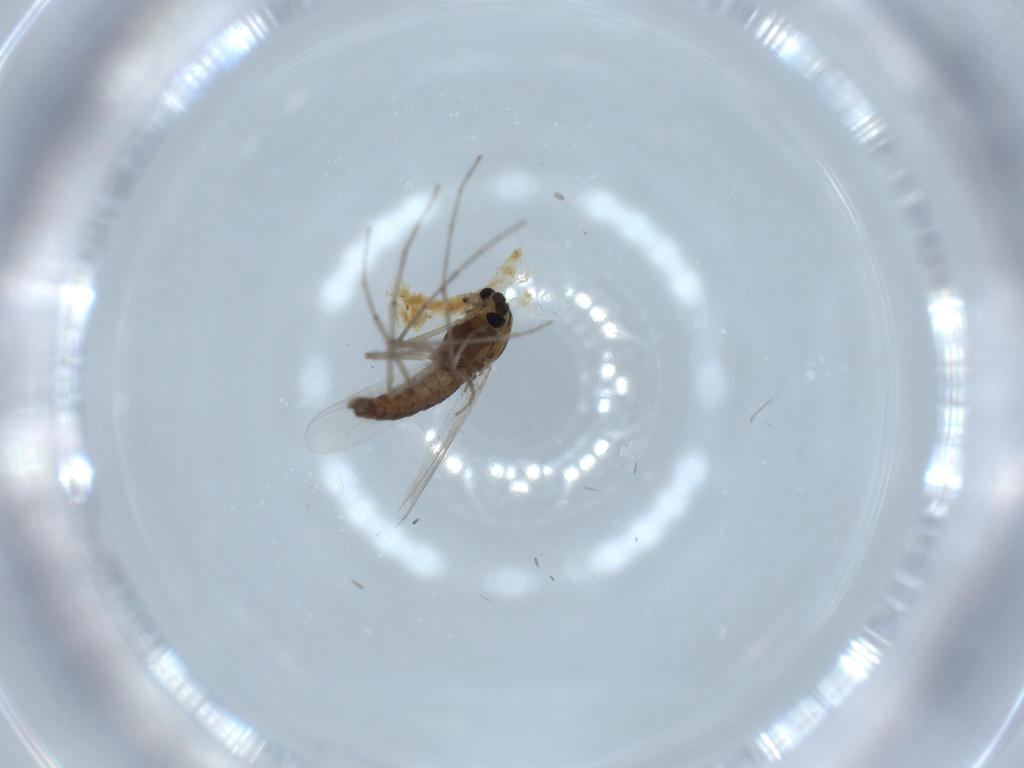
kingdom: Animalia
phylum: Arthropoda
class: Insecta
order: Diptera
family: Chironomidae
